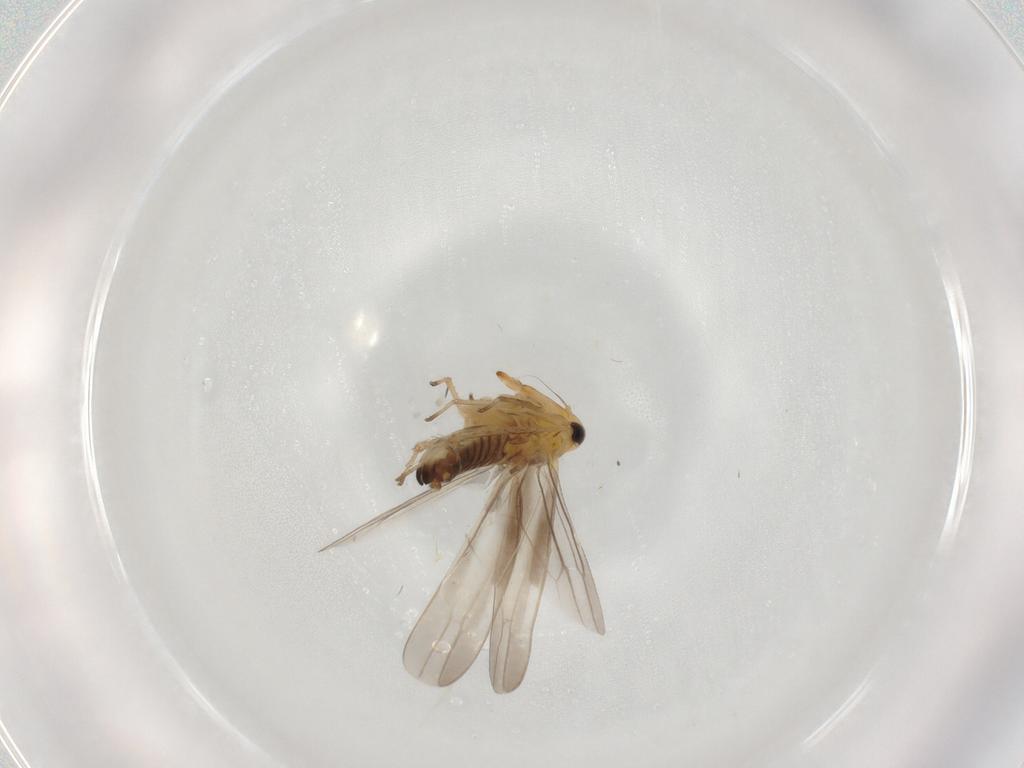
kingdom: Animalia
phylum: Arthropoda
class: Insecta
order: Hemiptera
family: Cicadellidae
